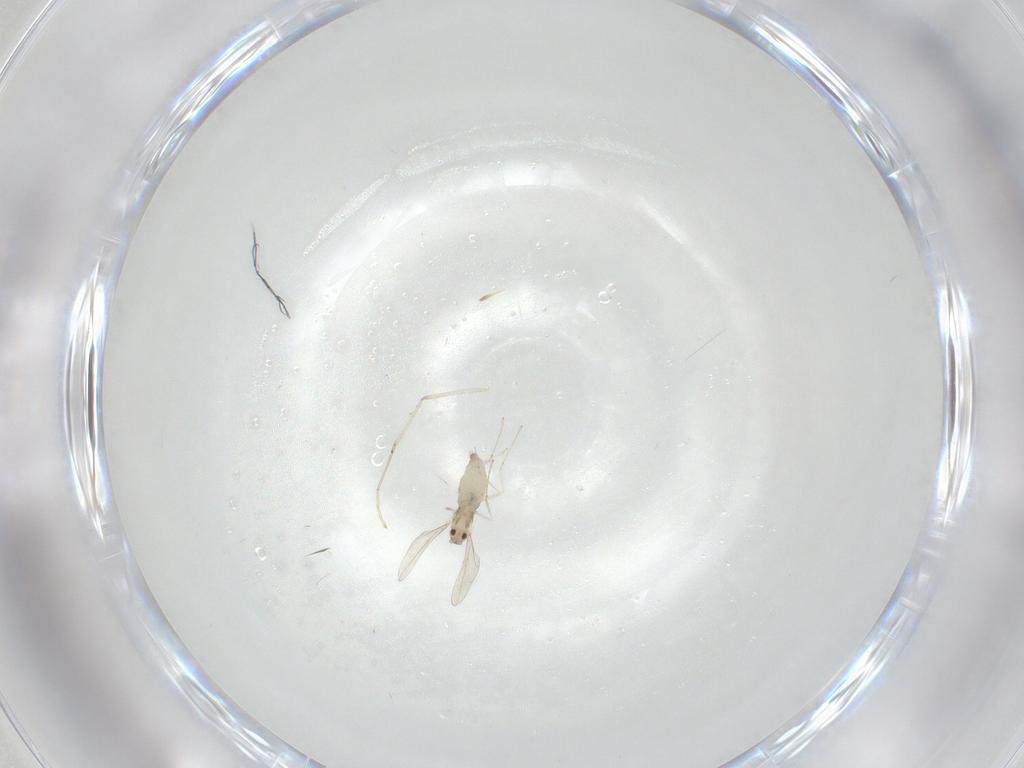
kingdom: Animalia
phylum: Arthropoda
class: Insecta
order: Diptera
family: Cecidomyiidae
